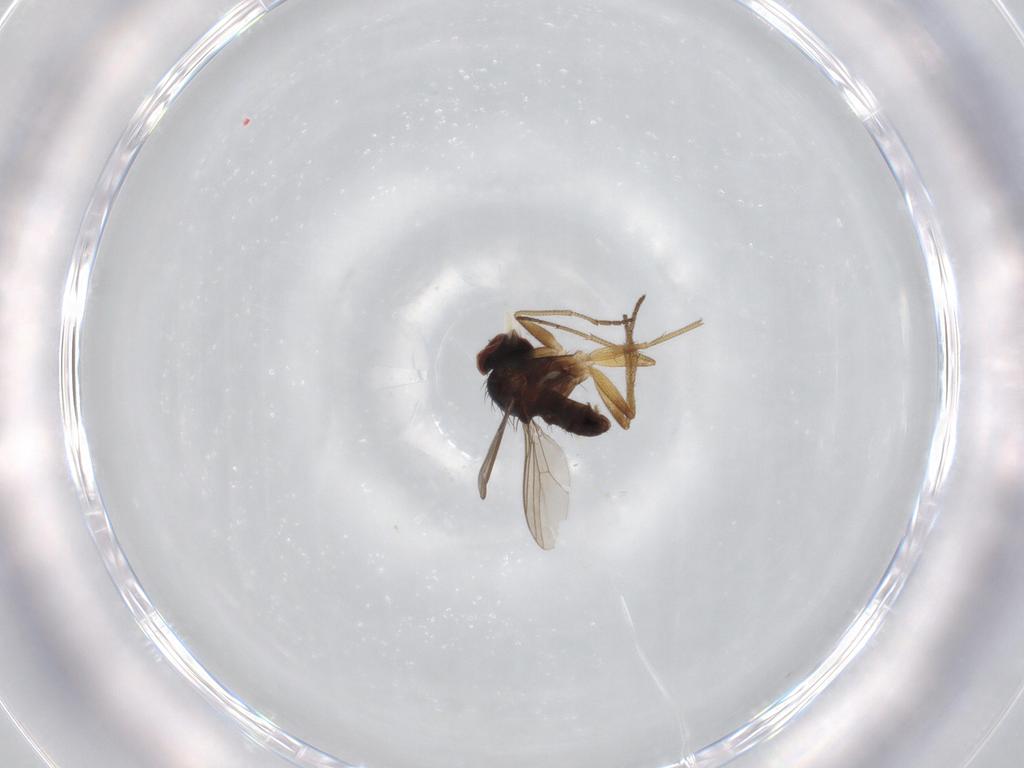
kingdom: Animalia
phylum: Arthropoda
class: Insecta
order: Diptera
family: Dolichopodidae
